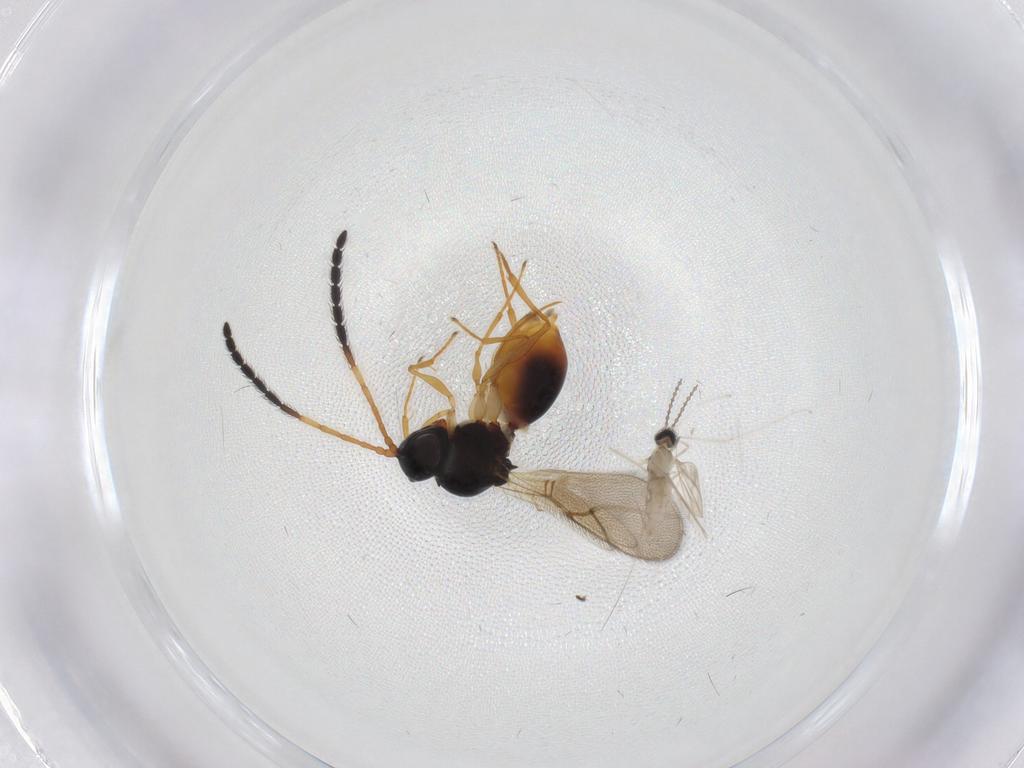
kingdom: Animalia
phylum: Arthropoda
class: Insecta
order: Hymenoptera
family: Figitidae
